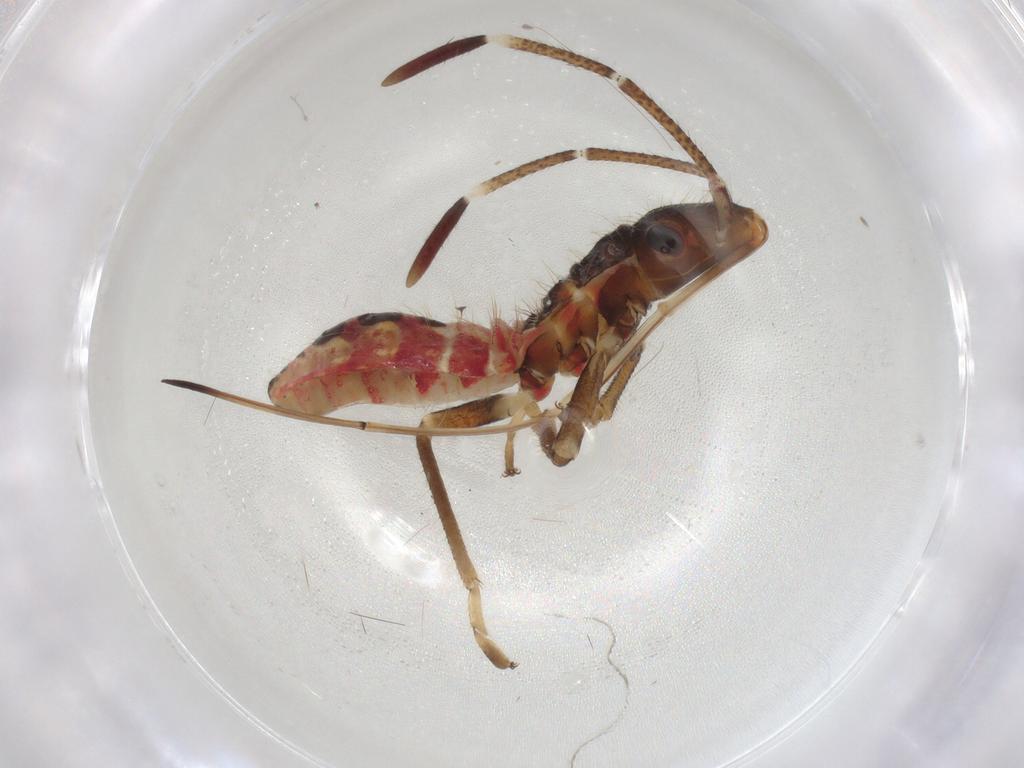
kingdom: Animalia
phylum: Arthropoda
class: Insecta
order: Hemiptera
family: Lygaeidae
